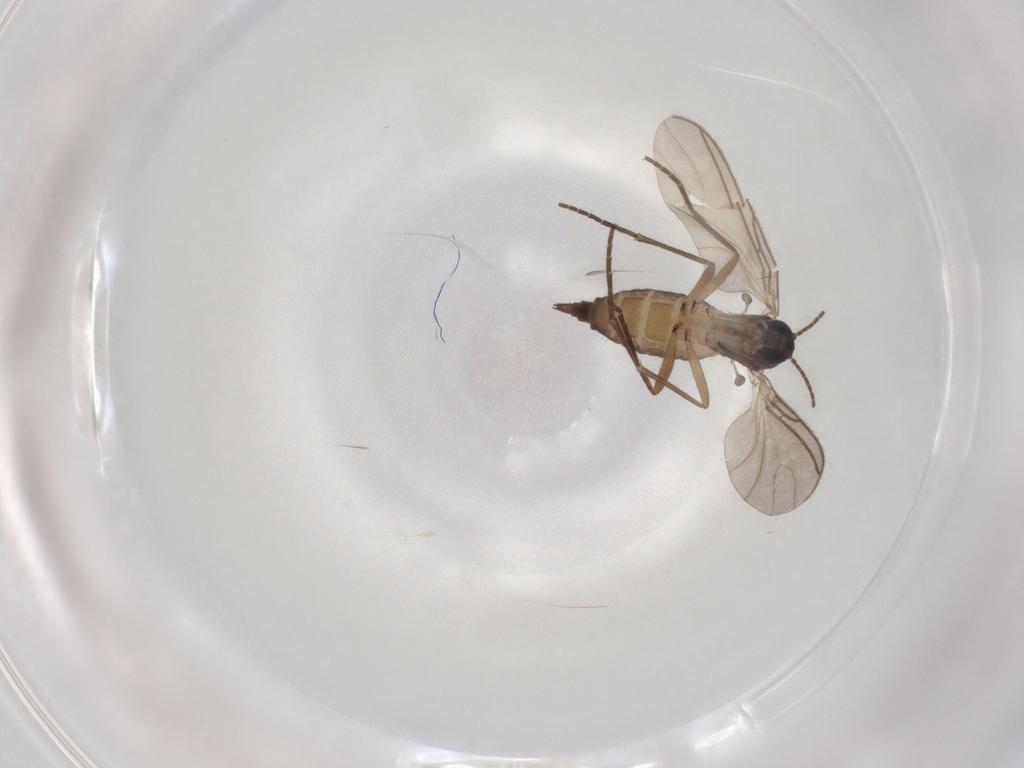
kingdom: Animalia
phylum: Arthropoda
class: Insecta
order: Diptera
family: Sciaridae
